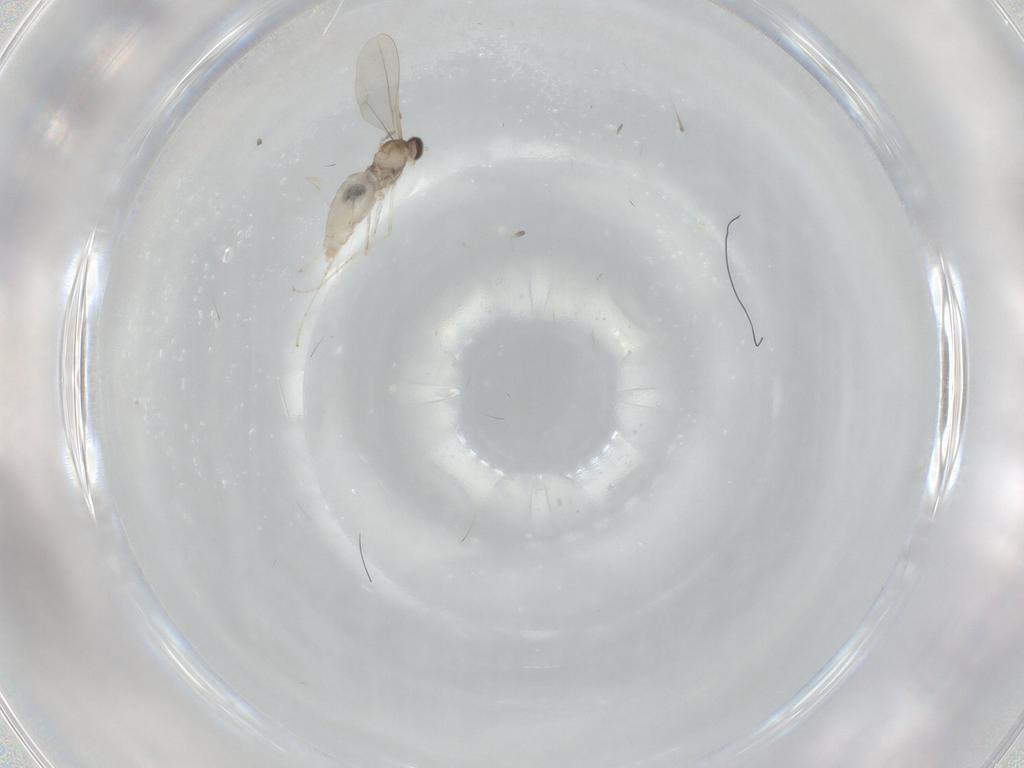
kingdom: Animalia
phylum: Arthropoda
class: Insecta
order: Diptera
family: Cecidomyiidae
